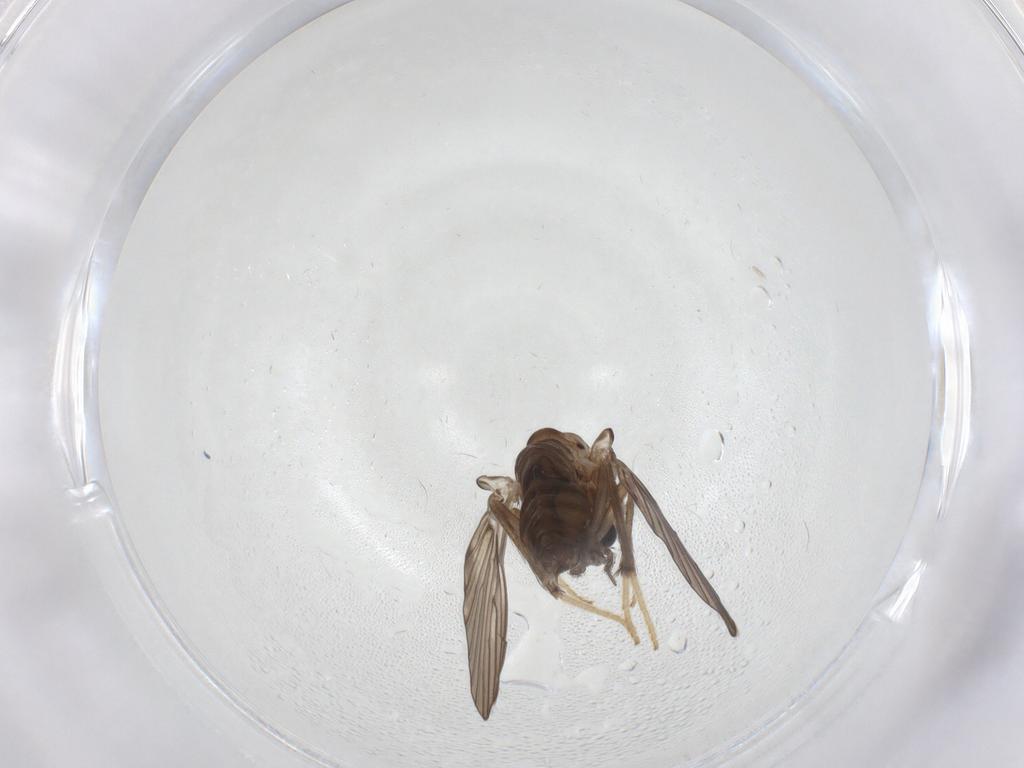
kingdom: Animalia
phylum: Arthropoda
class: Insecta
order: Diptera
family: Psychodidae
